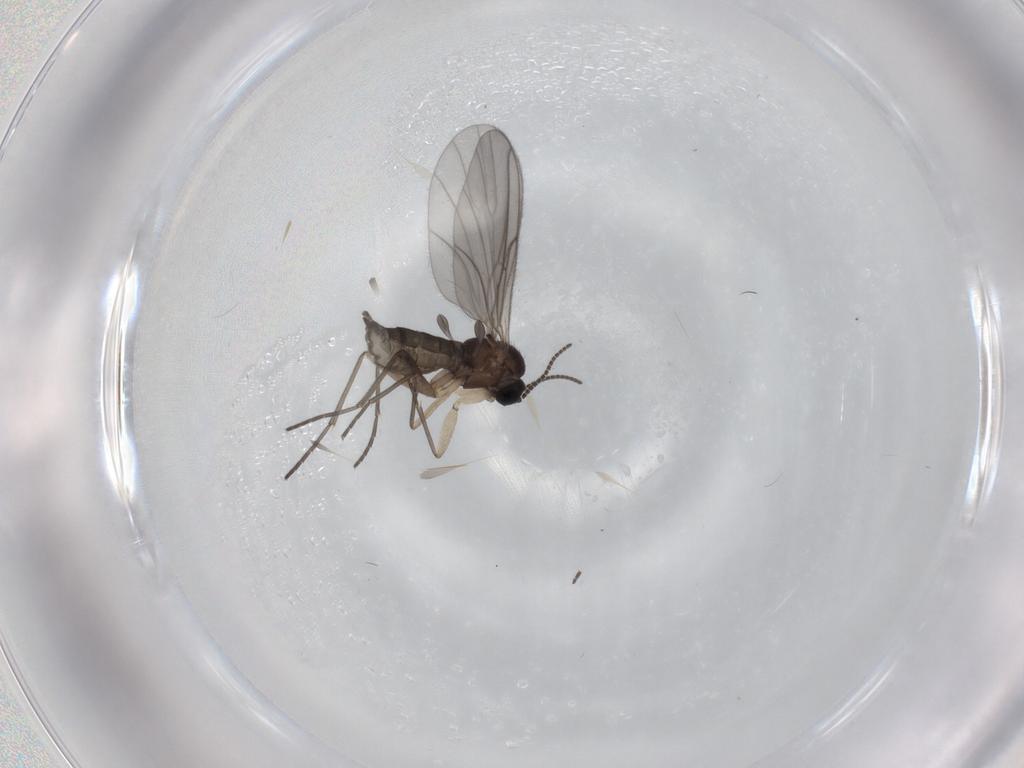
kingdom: Animalia
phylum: Arthropoda
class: Insecta
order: Diptera
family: Sciaridae
